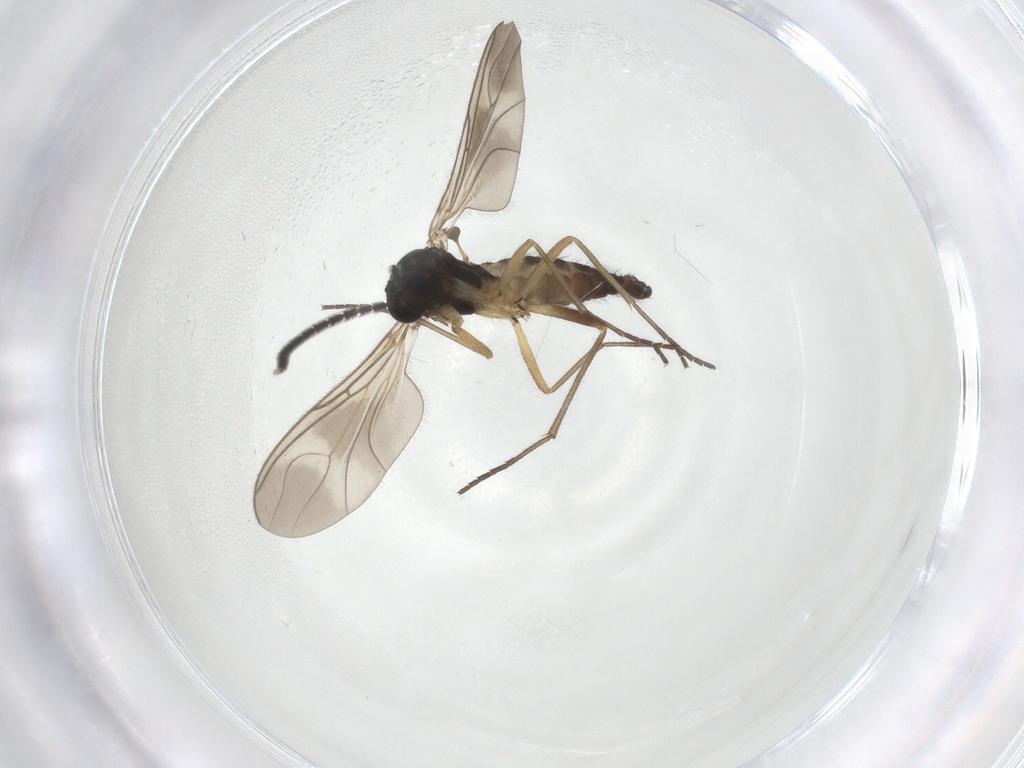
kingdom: Animalia
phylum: Arthropoda
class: Insecta
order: Diptera
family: Sciaridae
